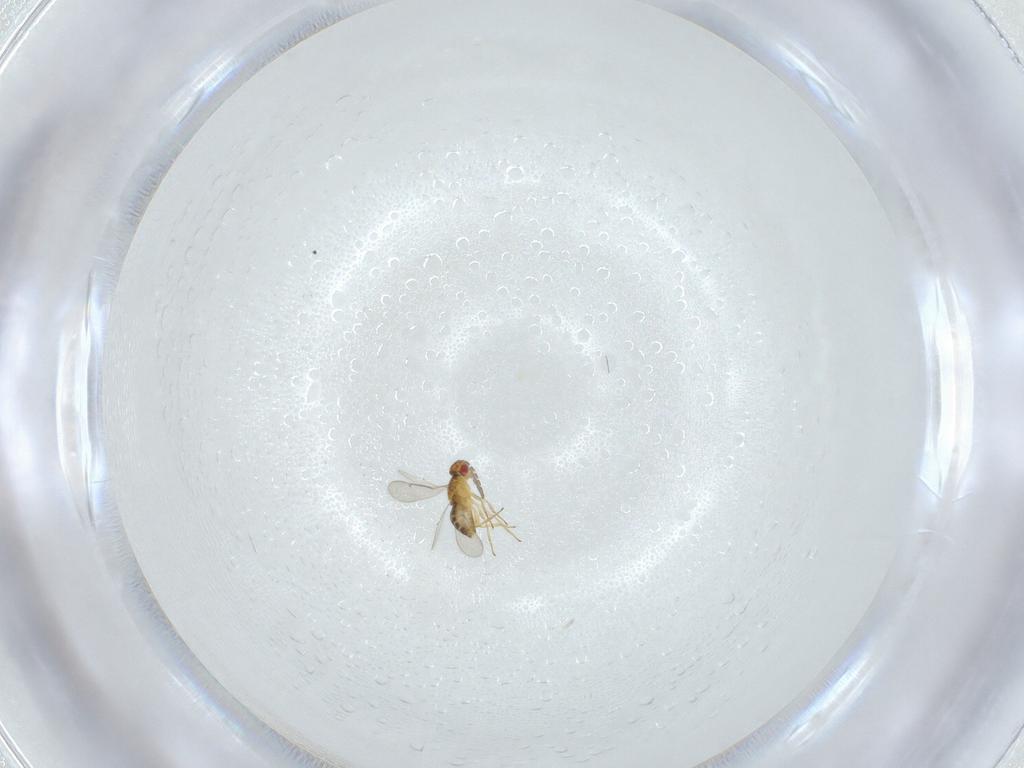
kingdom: Animalia
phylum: Arthropoda
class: Insecta
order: Hymenoptera
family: Aphelinidae
